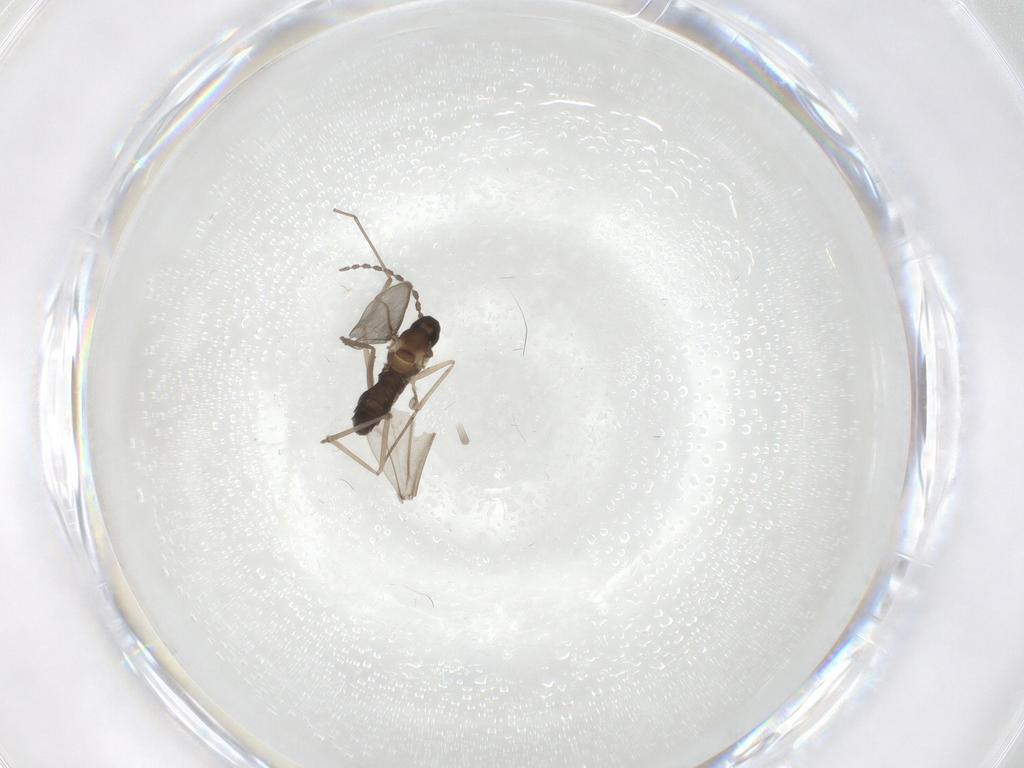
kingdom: Animalia
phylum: Arthropoda
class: Insecta
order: Diptera
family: Cecidomyiidae
